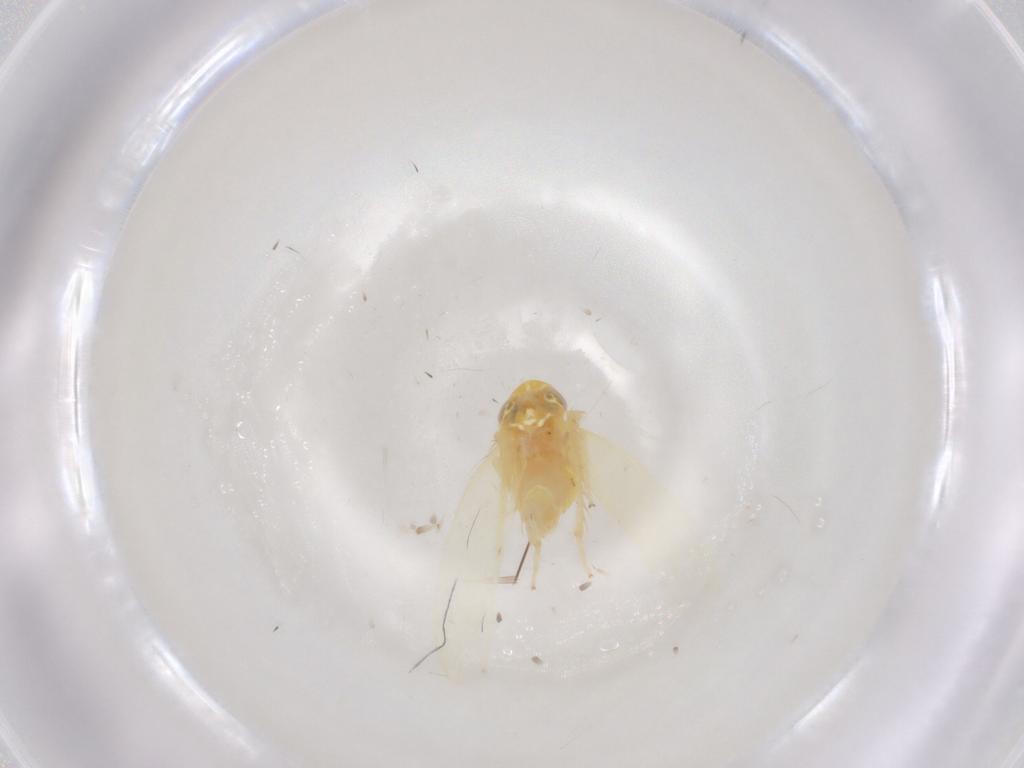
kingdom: Animalia
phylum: Arthropoda
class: Insecta
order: Hemiptera
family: Cicadellidae
